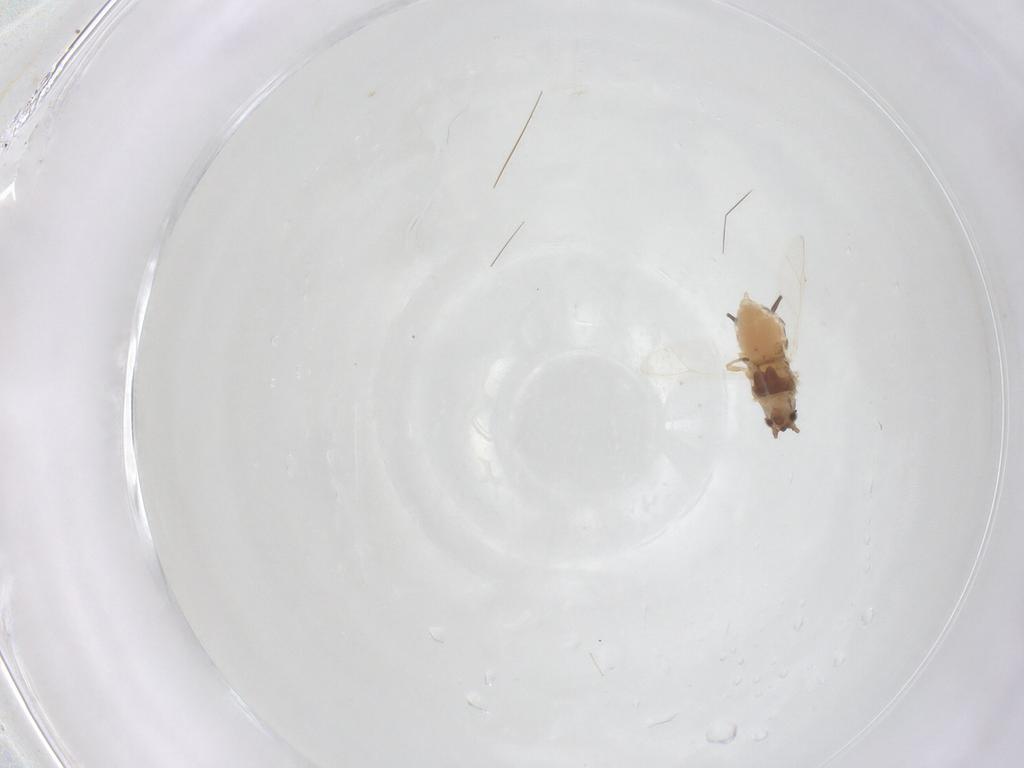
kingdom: Animalia
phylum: Arthropoda
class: Insecta
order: Hemiptera
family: Aphididae
